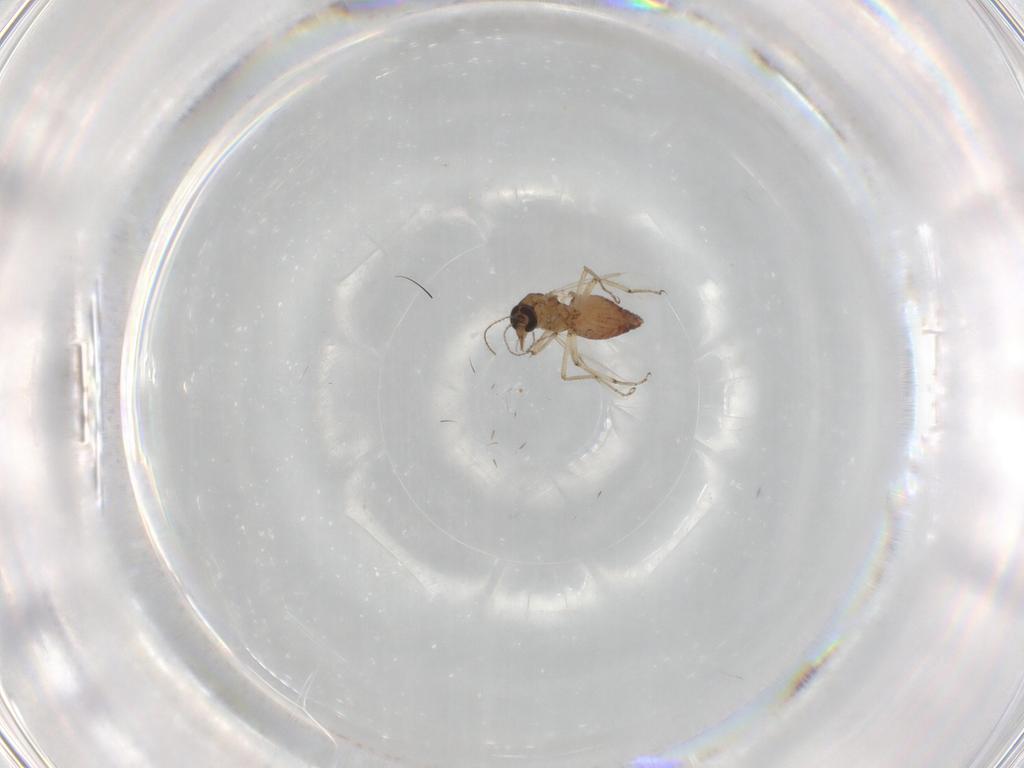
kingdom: Animalia
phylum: Arthropoda
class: Insecta
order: Diptera
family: Ceratopogonidae
